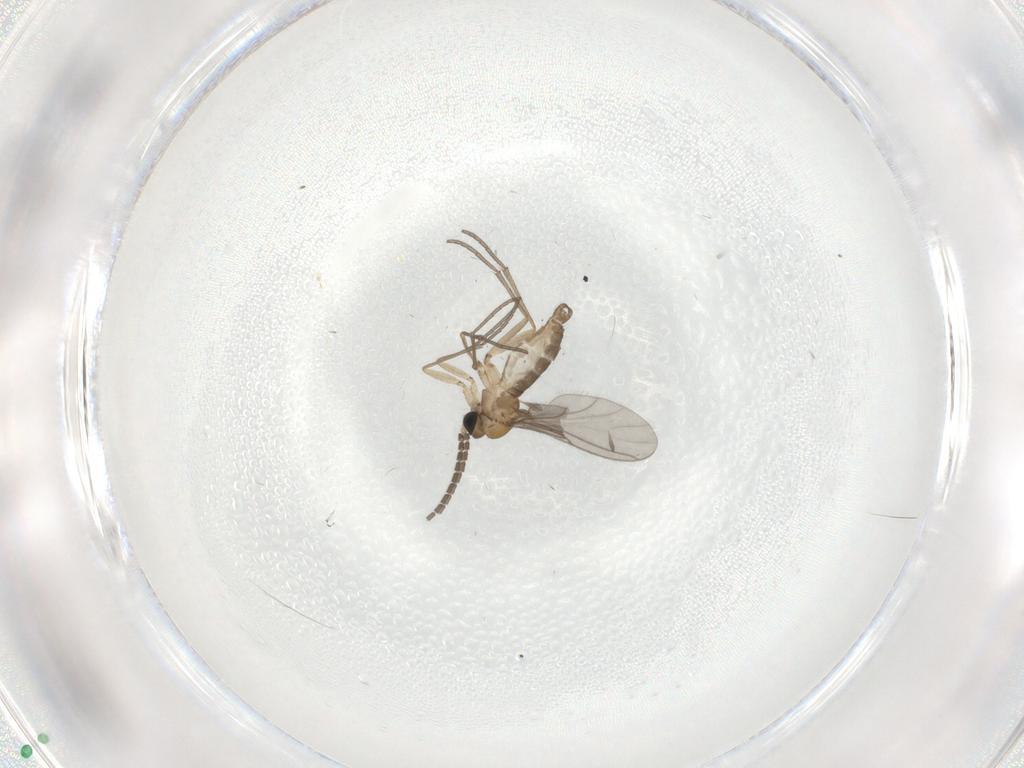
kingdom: Animalia
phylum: Arthropoda
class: Insecta
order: Diptera
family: Sciaridae
